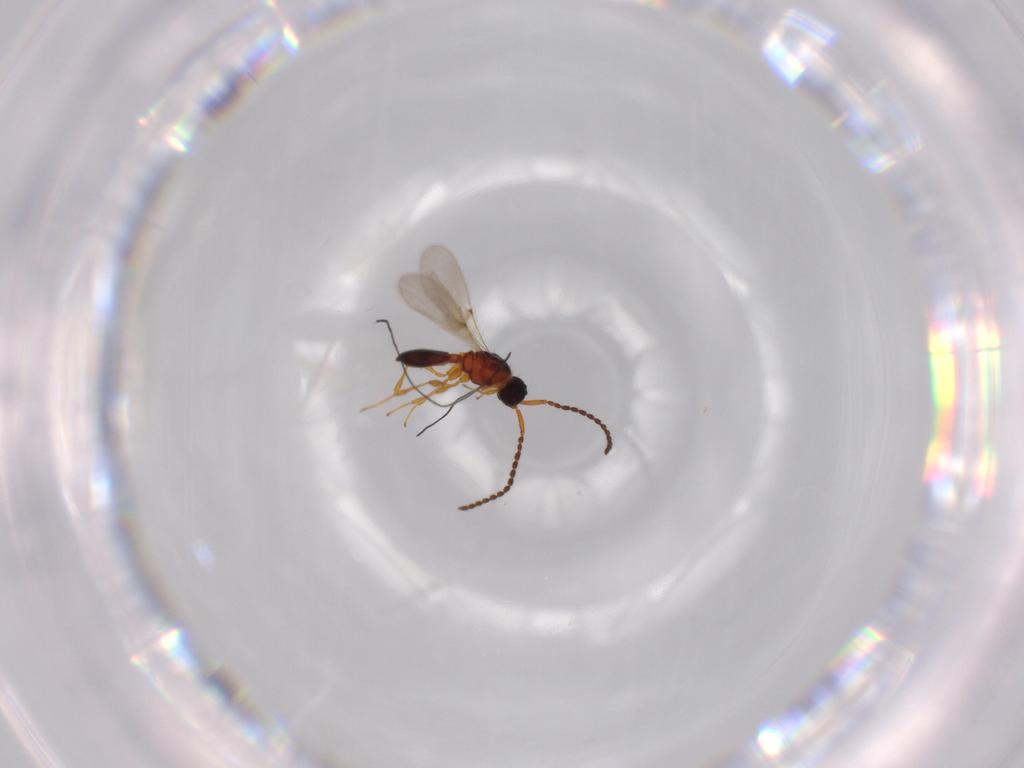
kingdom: Animalia
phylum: Arthropoda
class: Insecta
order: Hymenoptera
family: Diapriidae
